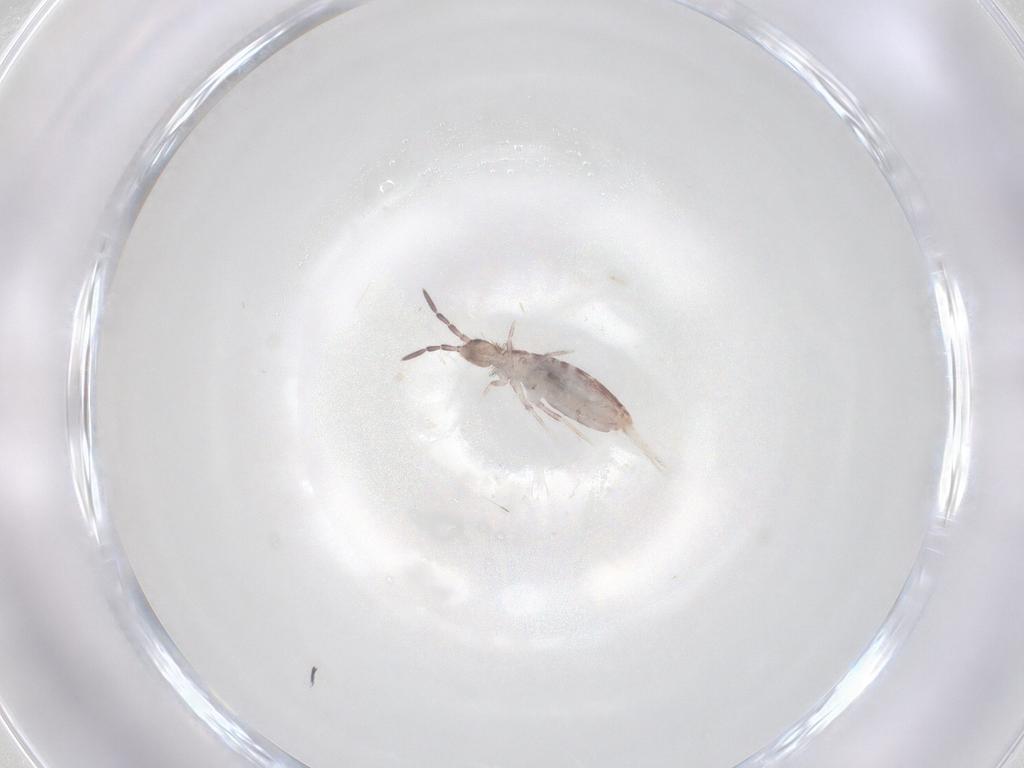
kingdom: Animalia
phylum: Arthropoda
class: Collembola
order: Entomobryomorpha
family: Entomobryidae
